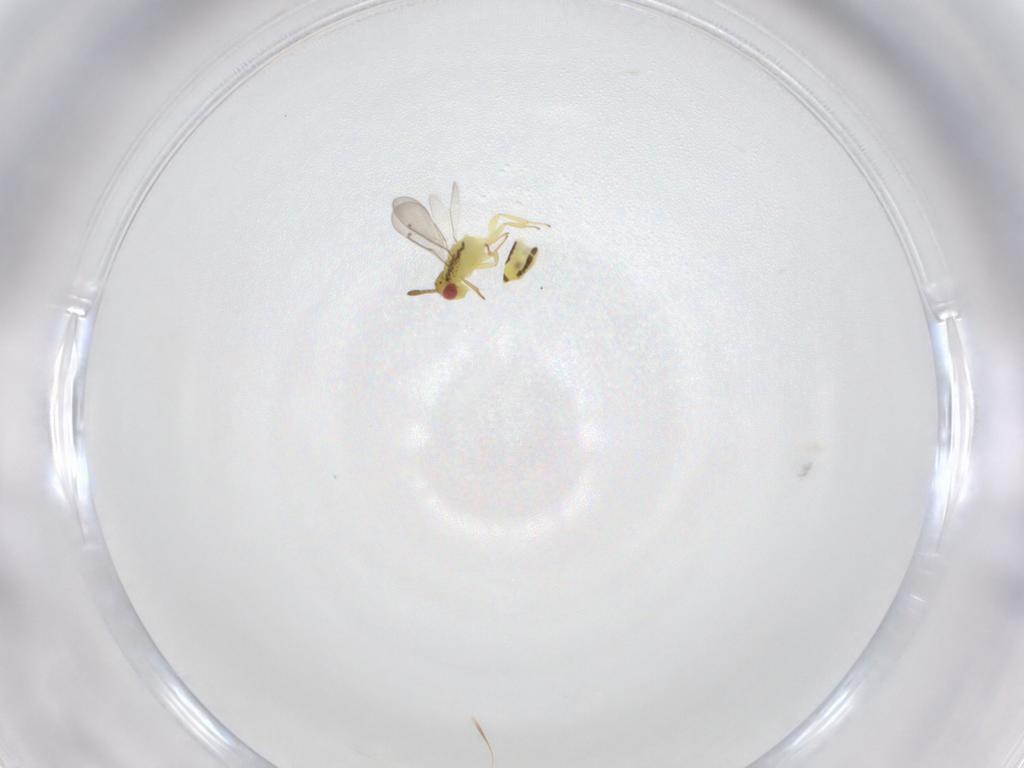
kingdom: Animalia
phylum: Arthropoda
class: Insecta
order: Hymenoptera
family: Aphelinidae
